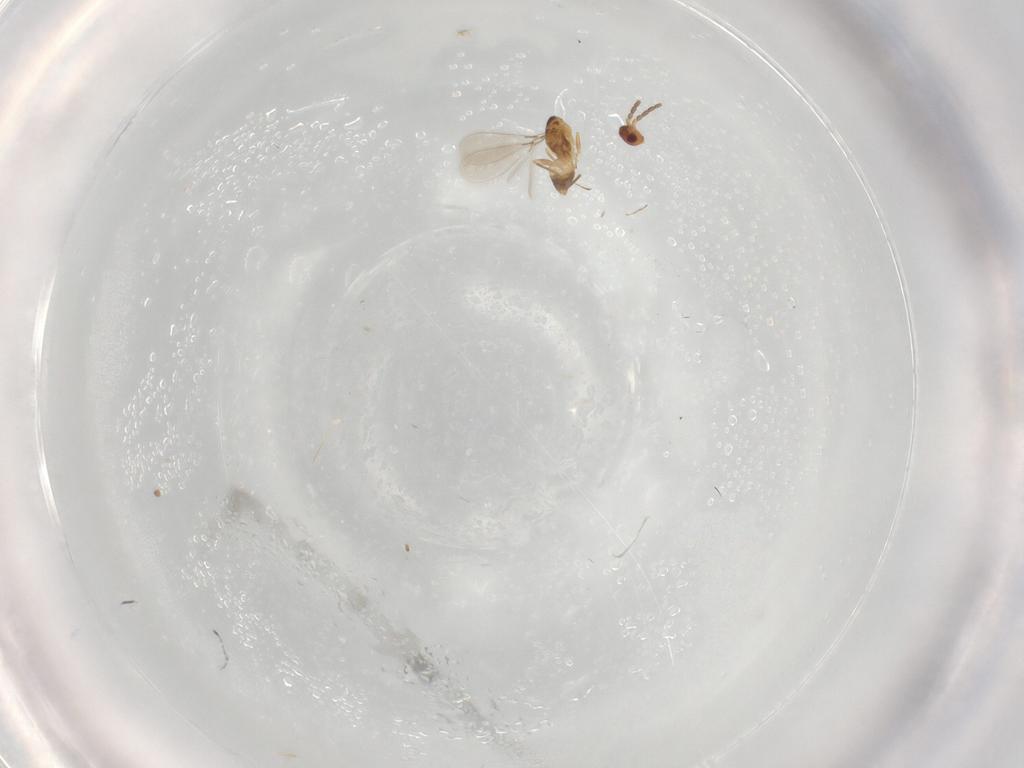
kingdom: Animalia
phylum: Arthropoda
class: Insecta
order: Hymenoptera
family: Mymaridae
